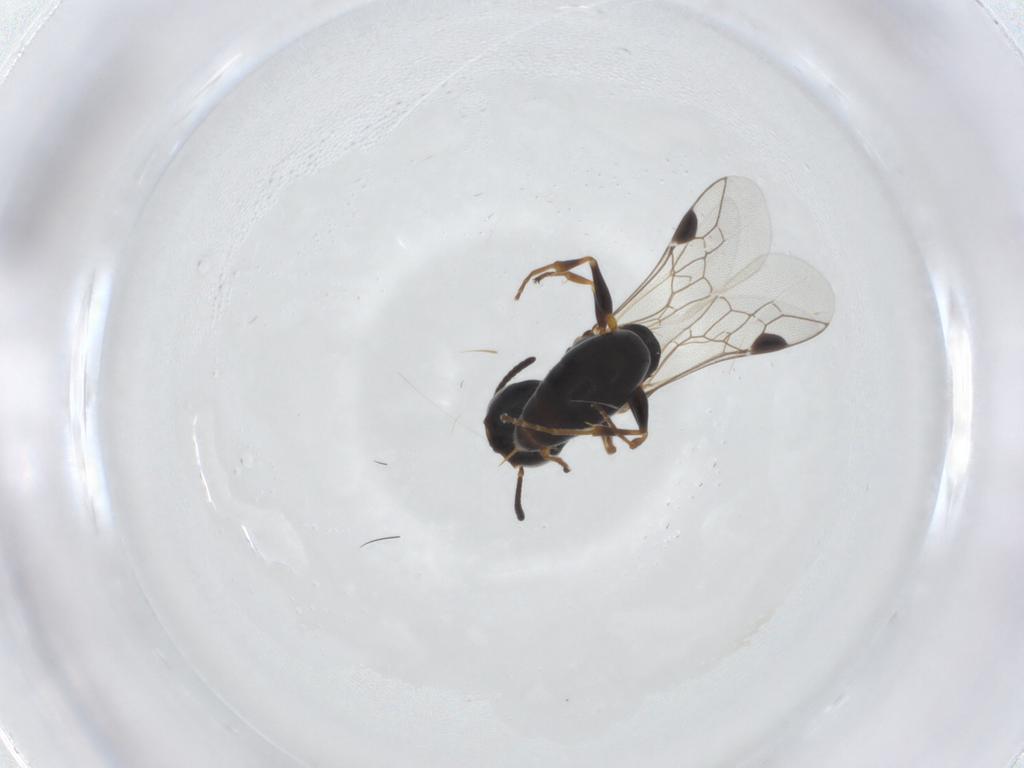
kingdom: Animalia
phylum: Arthropoda
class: Insecta
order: Hymenoptera
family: Crabronidae
